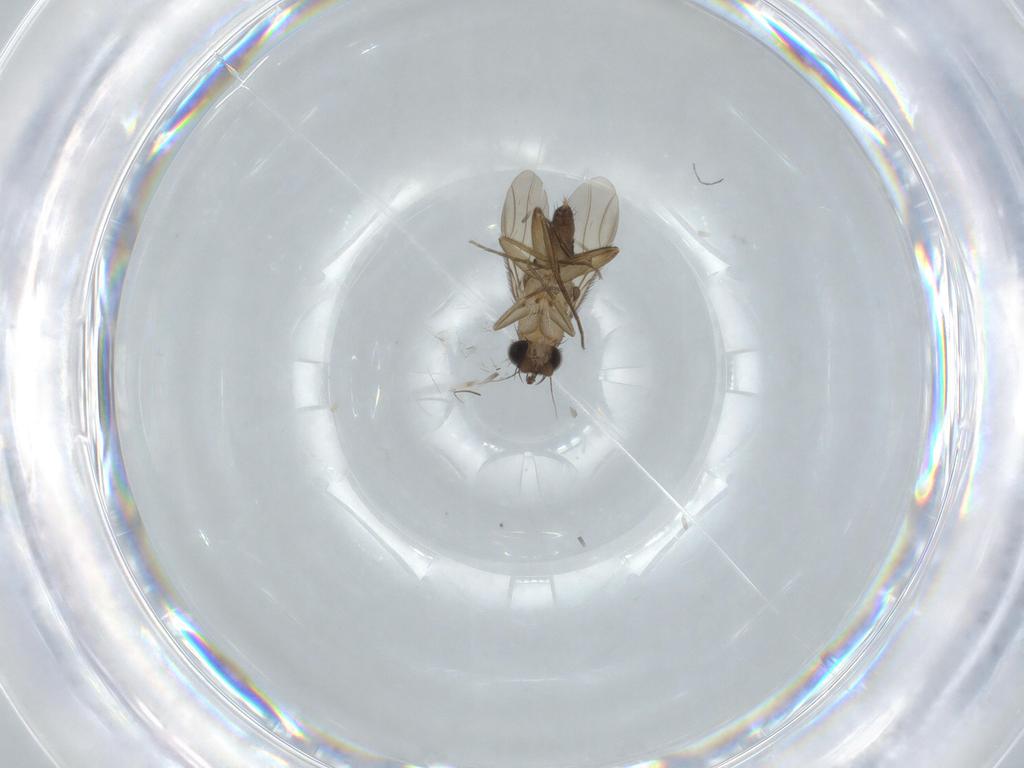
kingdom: Animalia
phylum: Arthropoda
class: Insecta
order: Diptera
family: Phoridae
